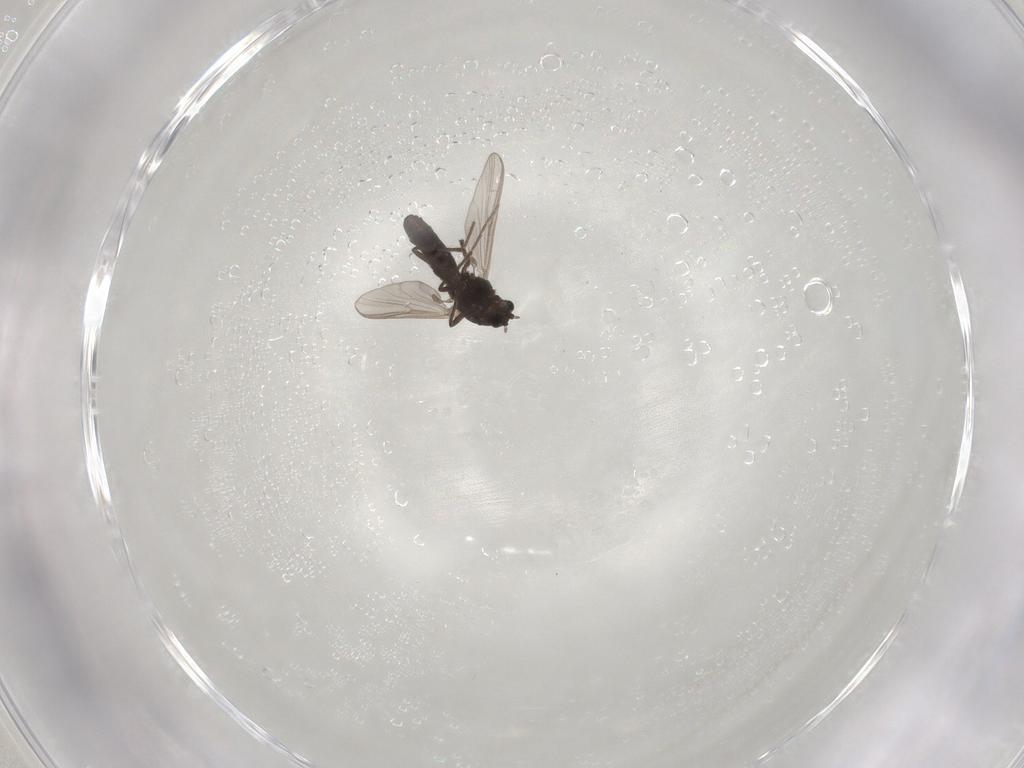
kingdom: Animalia
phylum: Arthropoda
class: Insecta
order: Diptera
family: Chironomidae
